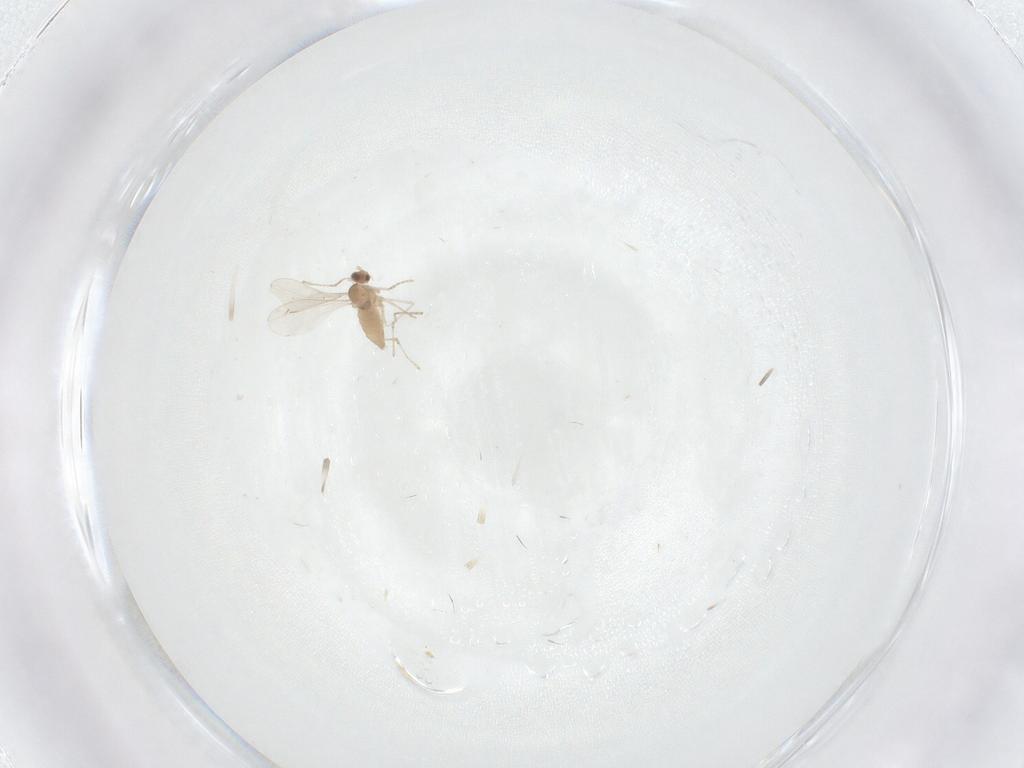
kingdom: Animalia
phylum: Arthropoda
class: Insecta
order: Diptera
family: Cecidomyiidae
